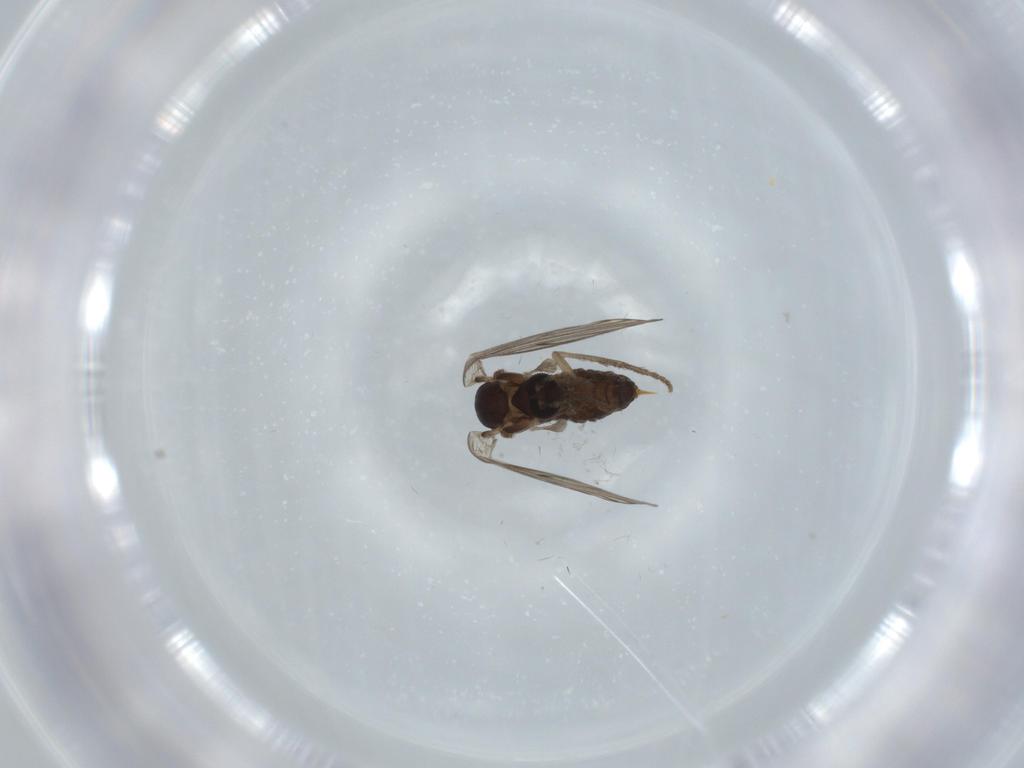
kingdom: Animalia
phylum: Arthropoda
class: Insecta
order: Diptera
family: Psychodidae
